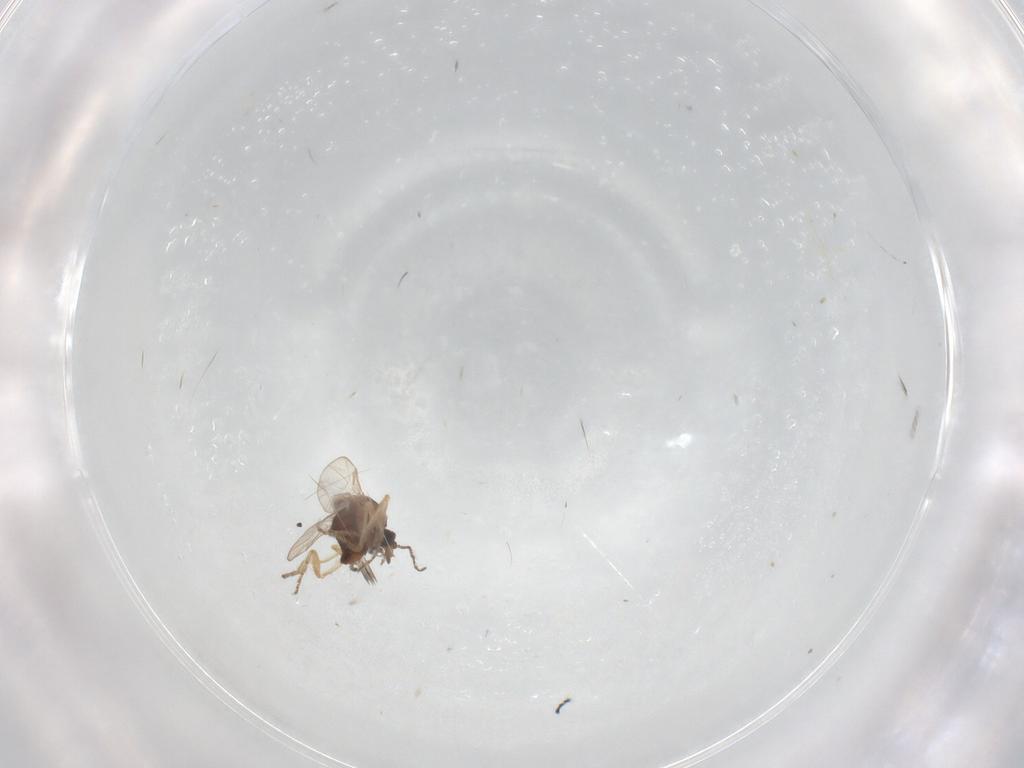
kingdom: Animalia
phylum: Arthropoda
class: Insecta
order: Diptera
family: Ceratopogonidae
